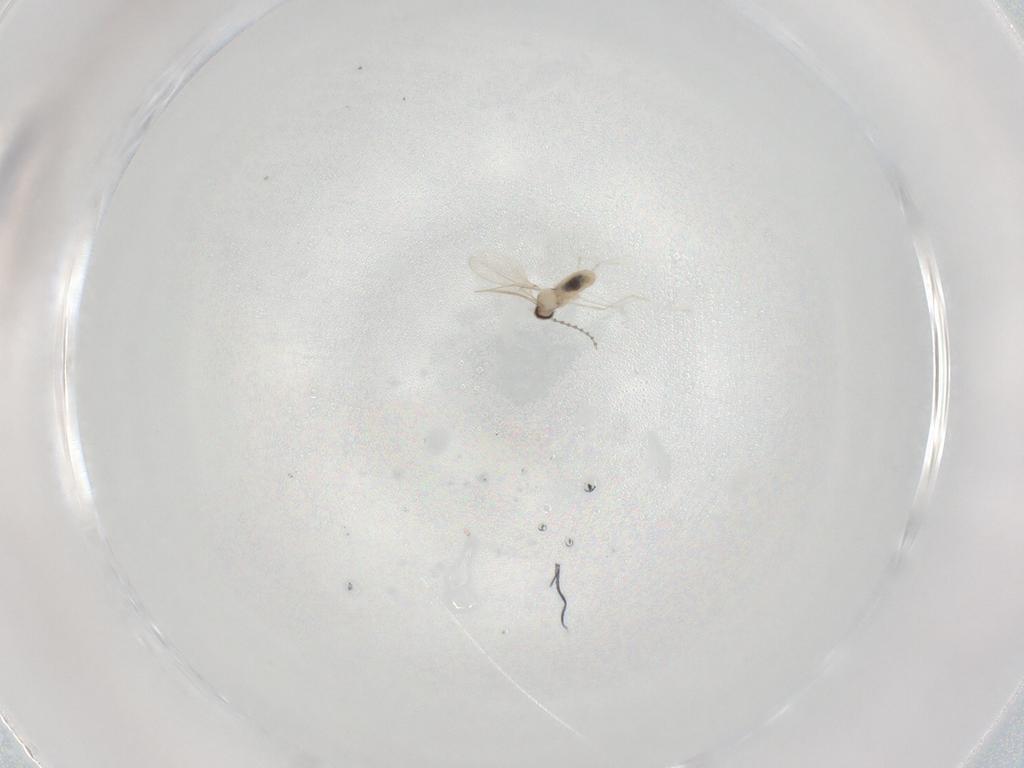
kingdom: Animalia
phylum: Arthropoda
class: Insecta
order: Diptera
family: Cecidomyiidae
